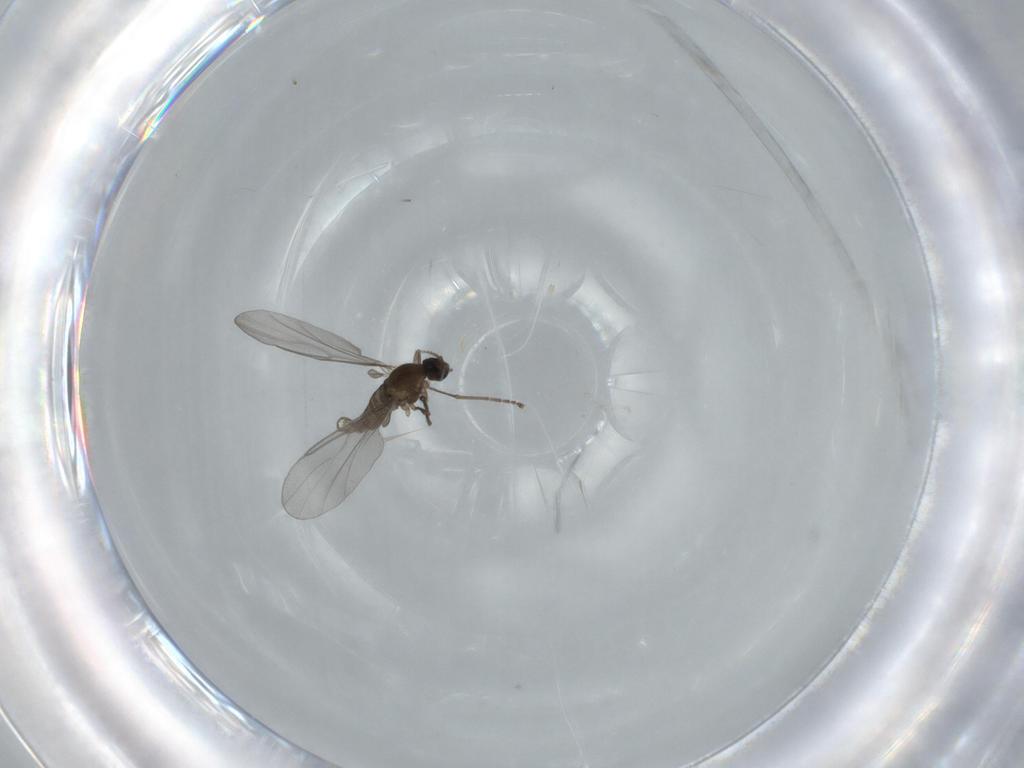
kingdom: Animalia
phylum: Arthropoda
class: Insecta
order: Diptera
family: Cecidomyiidae
